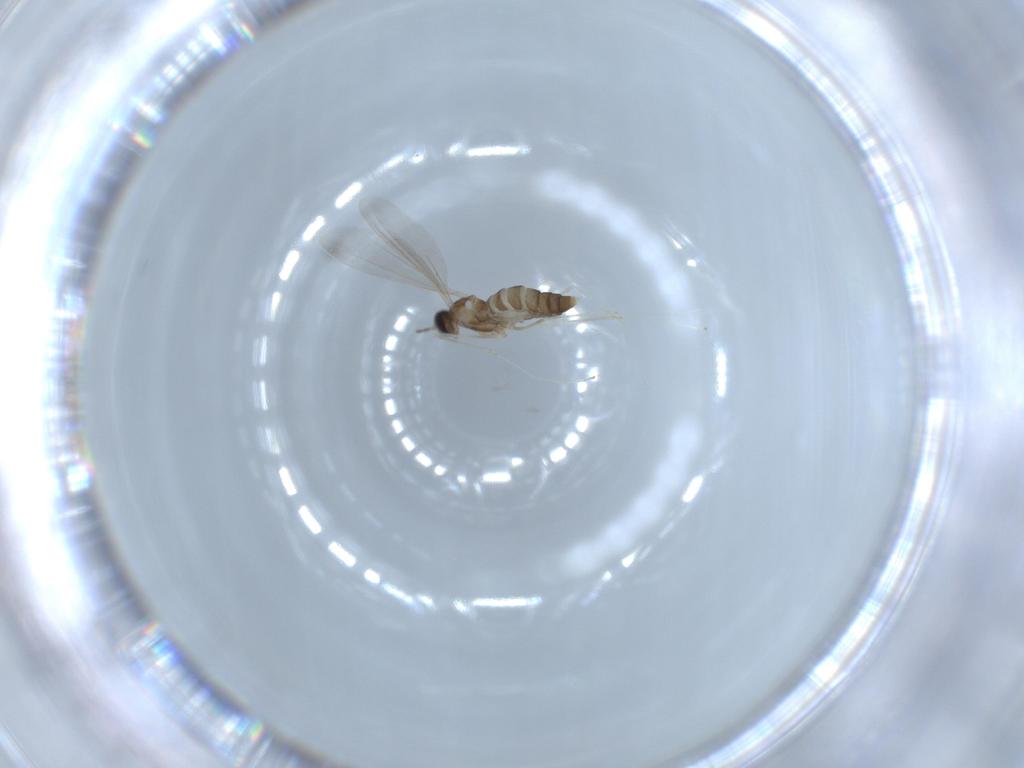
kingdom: Animalia
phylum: Arthropoda
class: Insecta
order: Diptera
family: Cecidomyiidae
